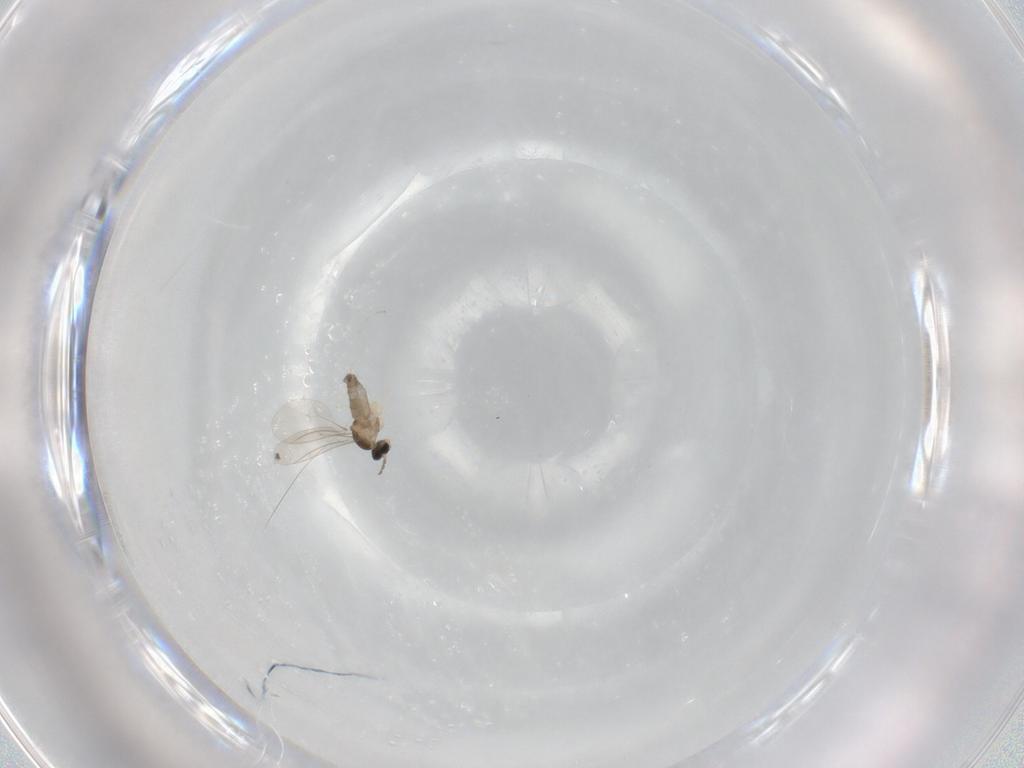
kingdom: Animalia
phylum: Arthropoda
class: Insecta
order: Diptera
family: Cecidomyiidae
